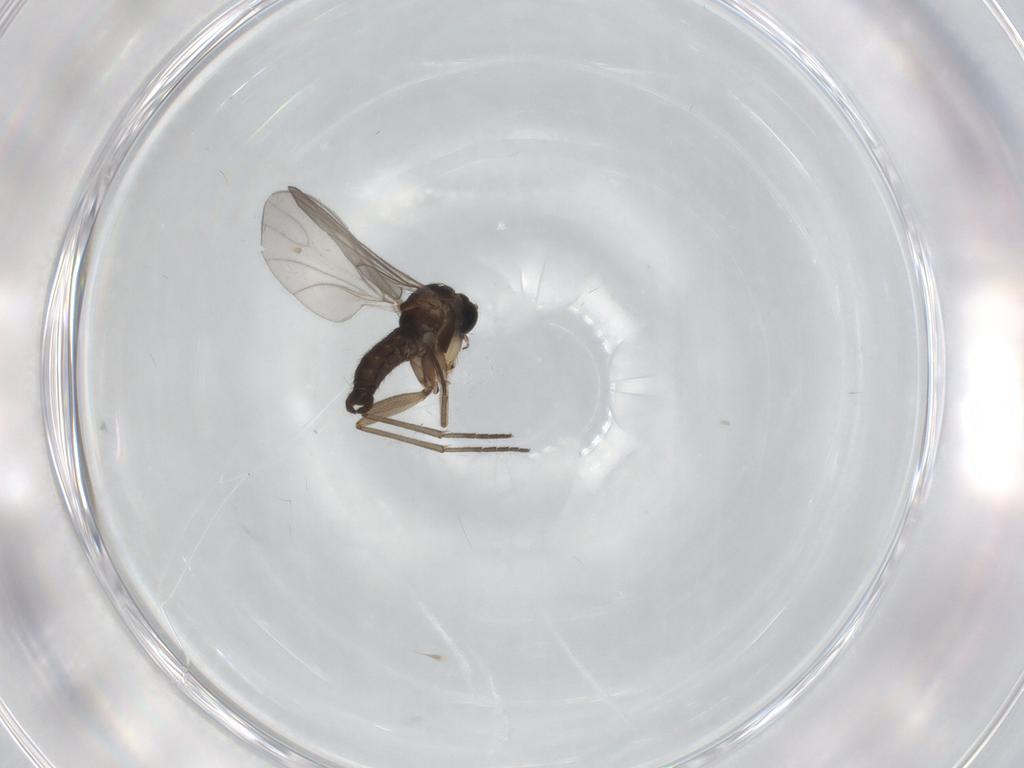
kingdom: Animalia
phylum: Arthropoda
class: Insecta
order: Diptera
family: Sciaridae
